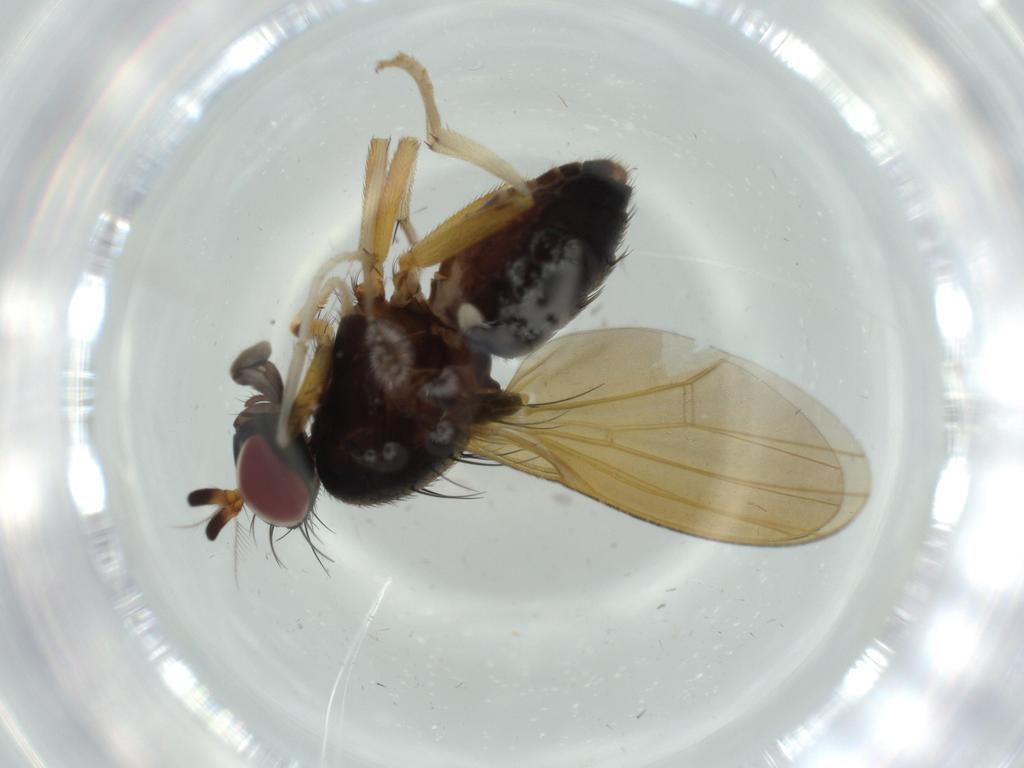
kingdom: Animalia
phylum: Arthropoda
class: Insecta
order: Diptera
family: Lauxaniidae
